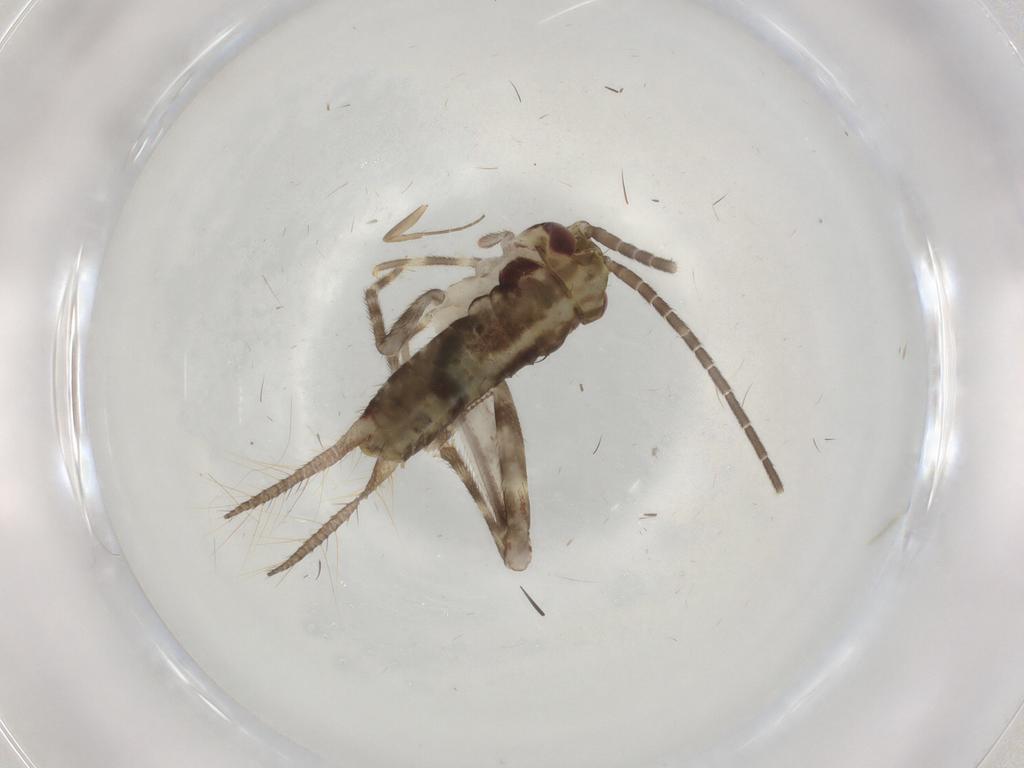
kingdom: Animalia
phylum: Arthropoda
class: Insecta
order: Orthoptera
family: Gryllidae
